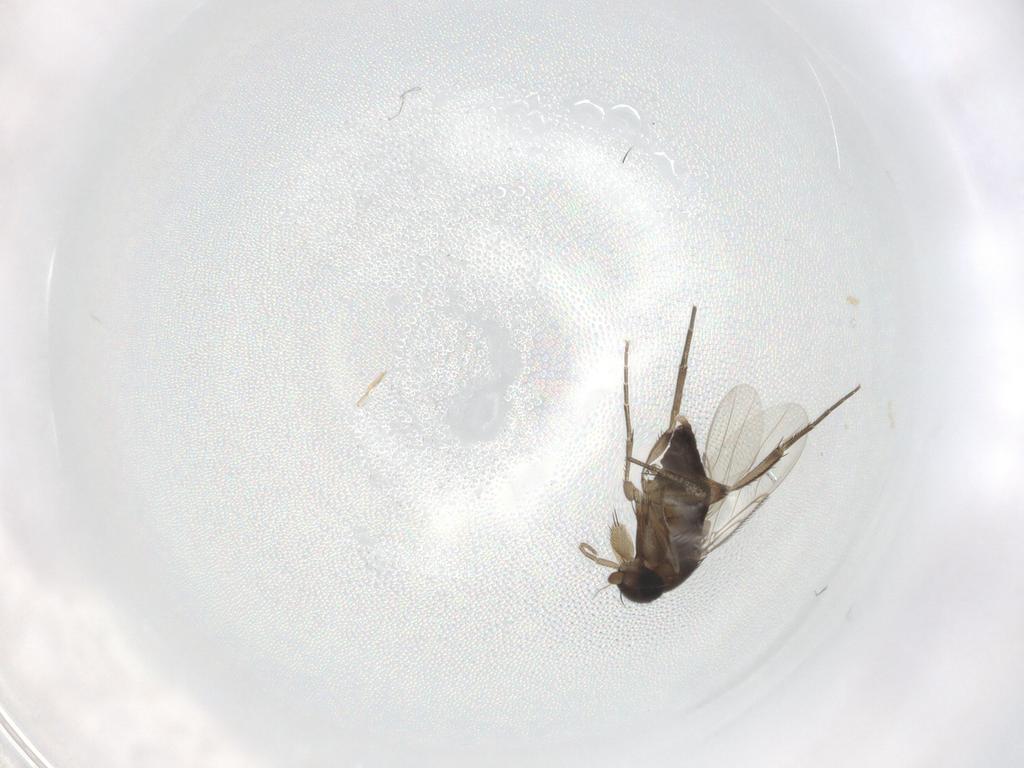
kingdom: Animalia
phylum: Arthropoda
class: Insecta
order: Diptera
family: Phoridae
